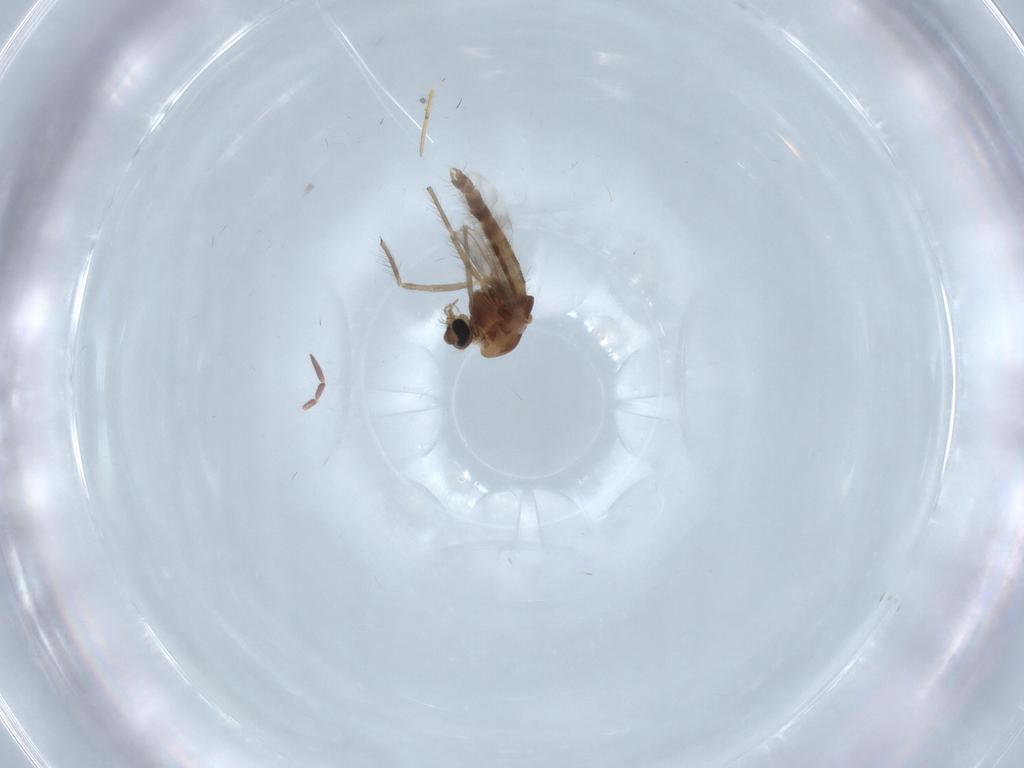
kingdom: Animalia
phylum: Arthropoda
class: Insecta
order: Diptera
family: Chironomidae
